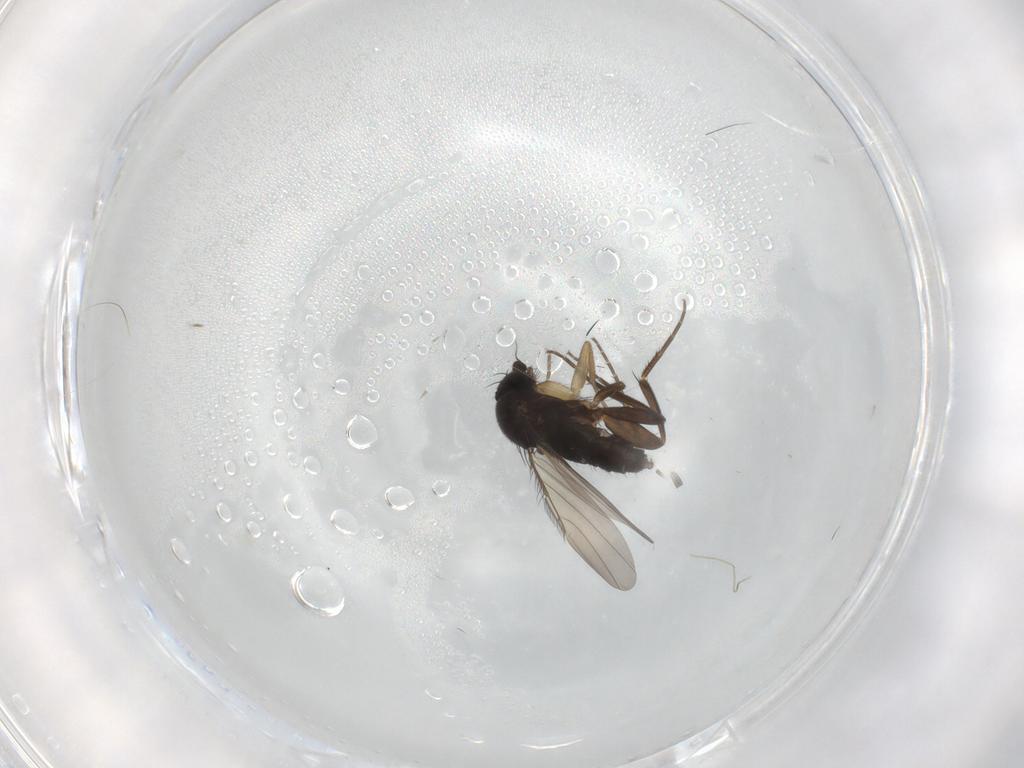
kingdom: Animalia
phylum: Arthropoda
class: Insecta
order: Diptera
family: Phoridae
